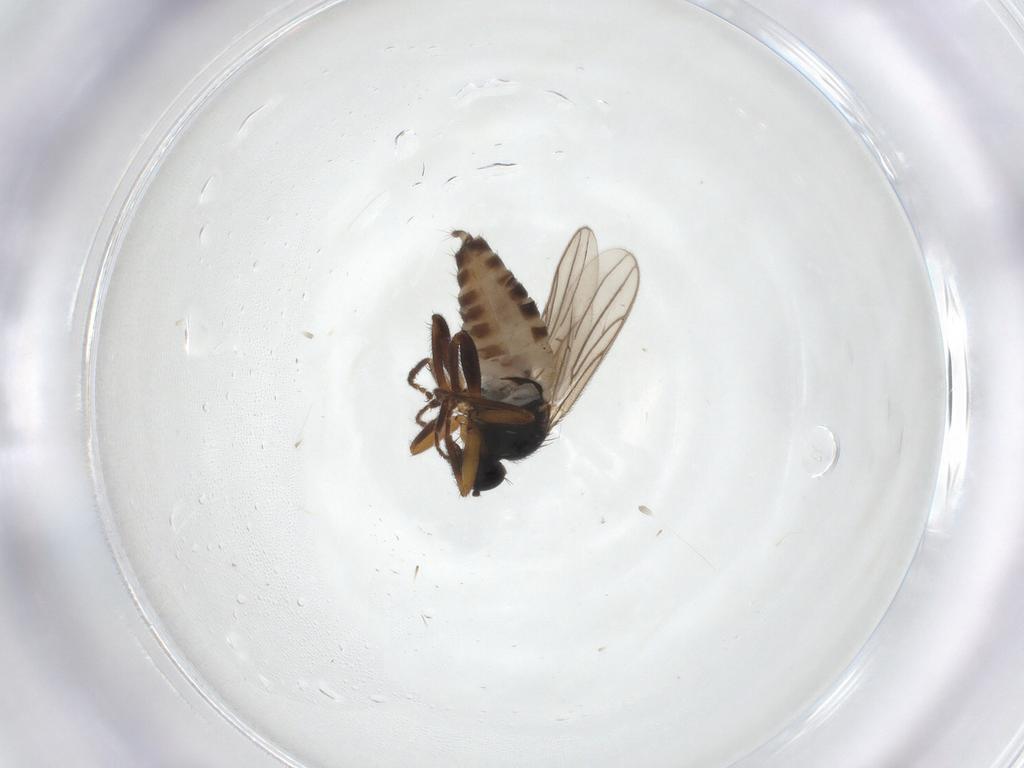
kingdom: Animalia
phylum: Arthropoda
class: Insecta
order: Diptera
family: Hybotidae
